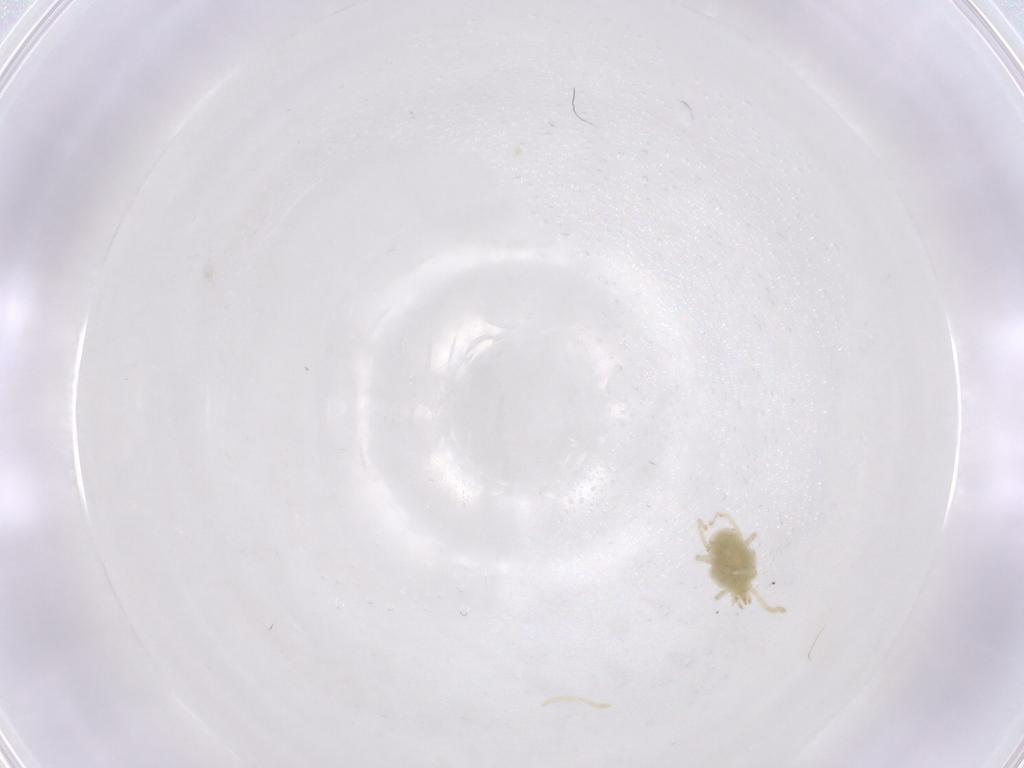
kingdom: Animalia
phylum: Arthropoda
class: Arachnida
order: Trombidiformes
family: Erythraeidae
